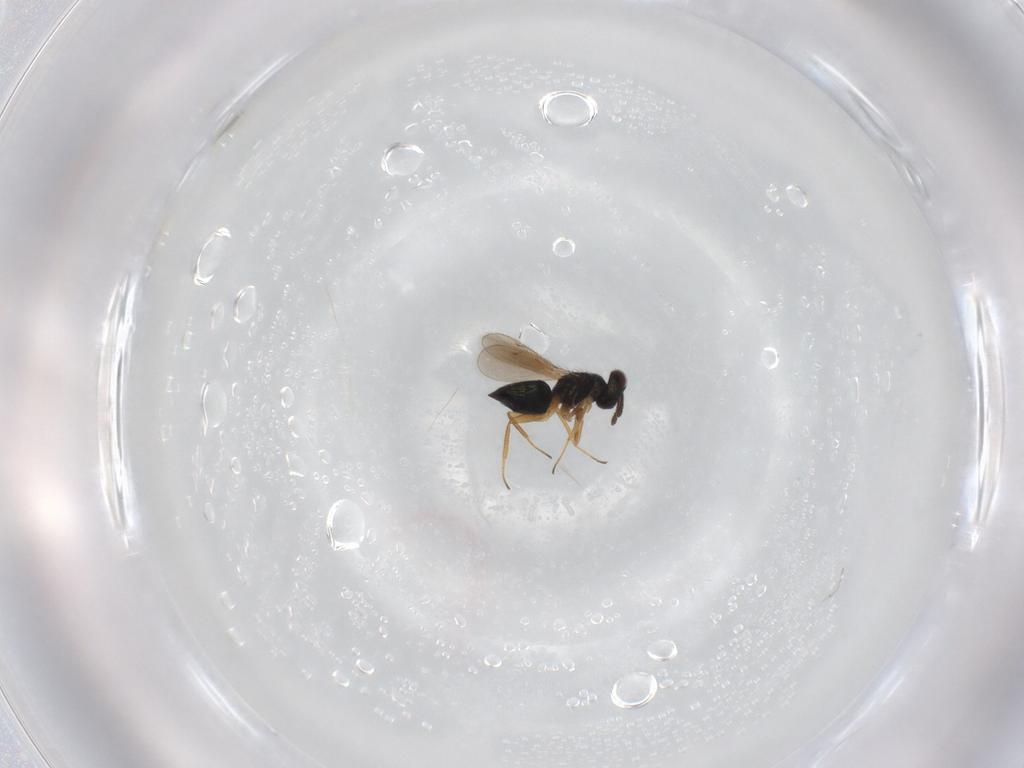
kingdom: Animalia
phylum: Arthropoda
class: Insecta
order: Hymenoptera
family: Tetracampidae
